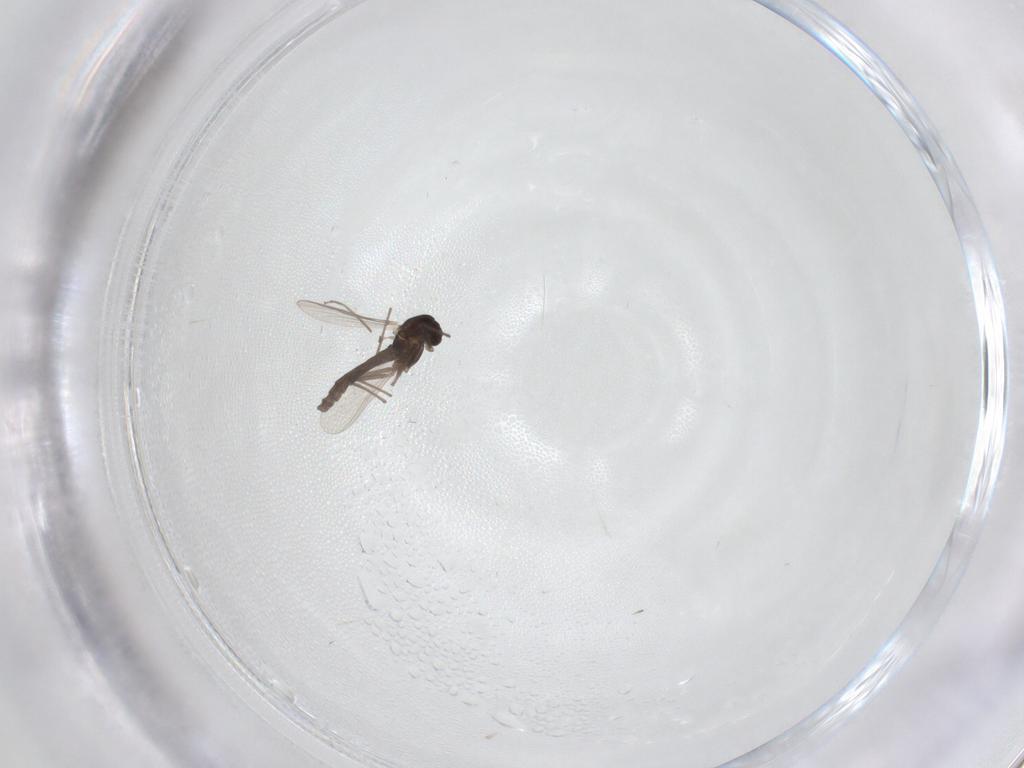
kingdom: Animalia
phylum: Arthropoda
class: Insecta
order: Diptera
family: Chironomidae
